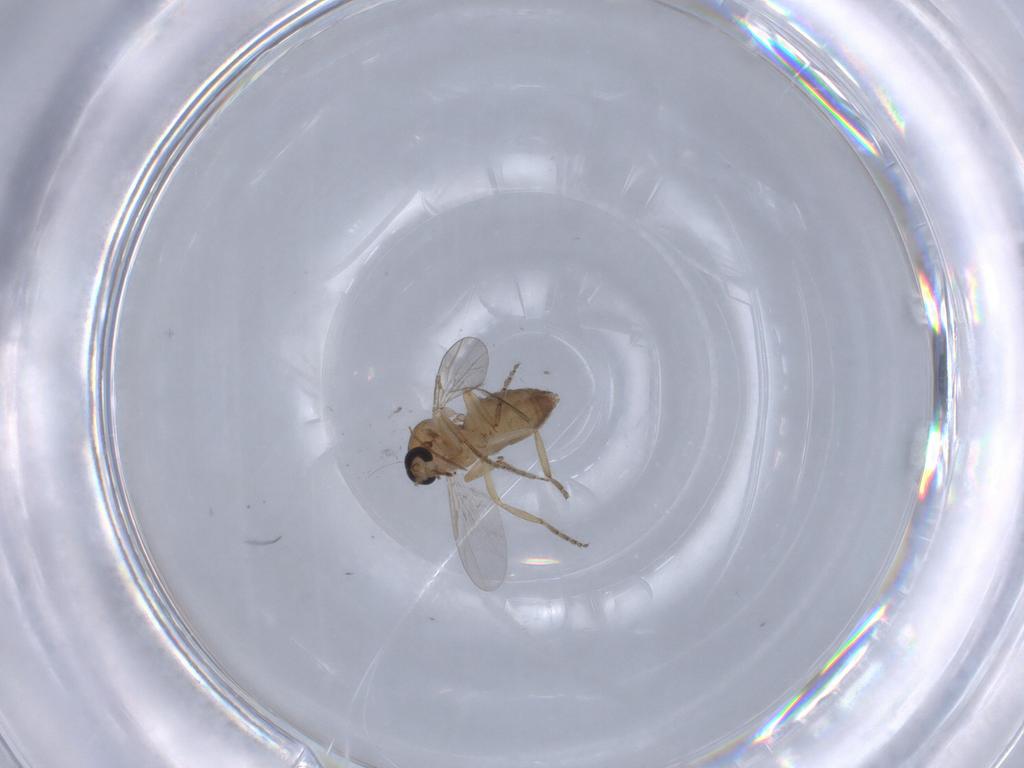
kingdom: Animalia
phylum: Arthropoda
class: Insecta
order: Diptera
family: Ceratopogonidae
